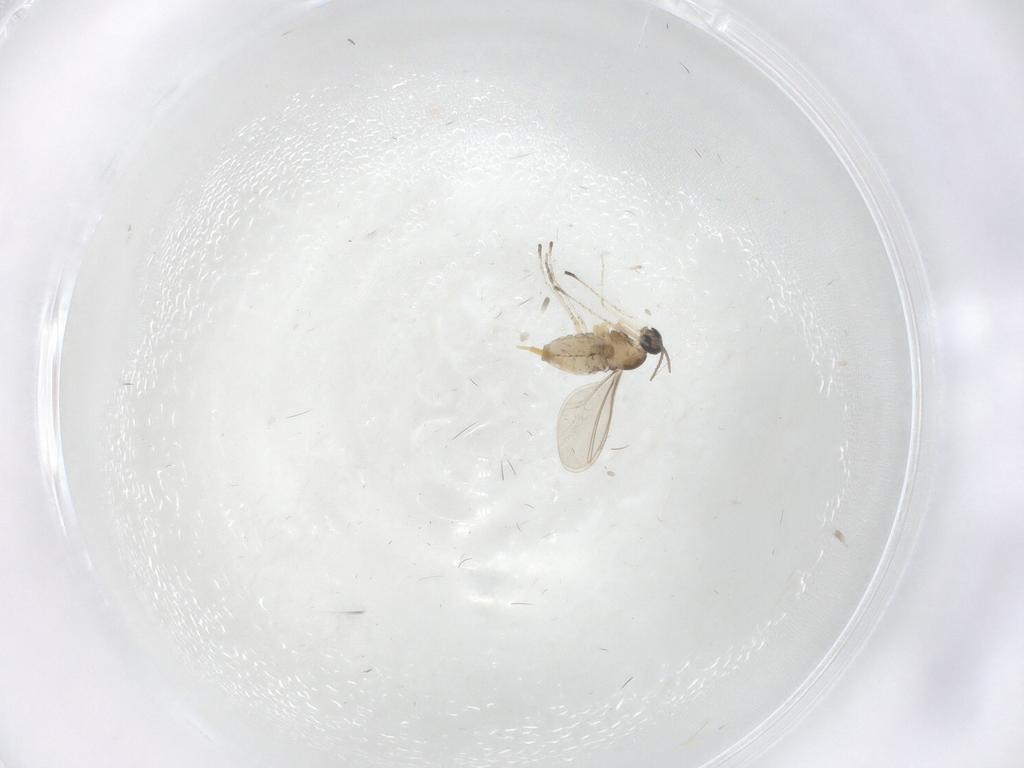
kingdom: Animalia
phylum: Arthropoda
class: Insecta
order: Diptera
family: Cecidomyiidae
